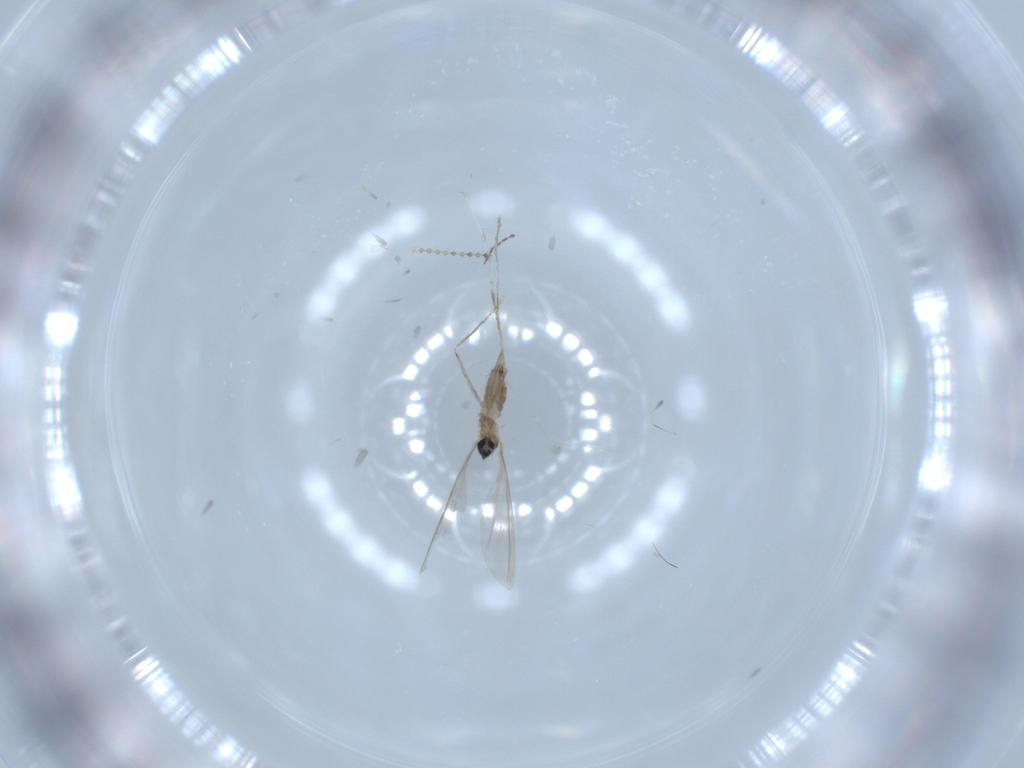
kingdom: Animalia
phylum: Arthropoda
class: Insecta
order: Diptera
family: Cecidomyiidae
